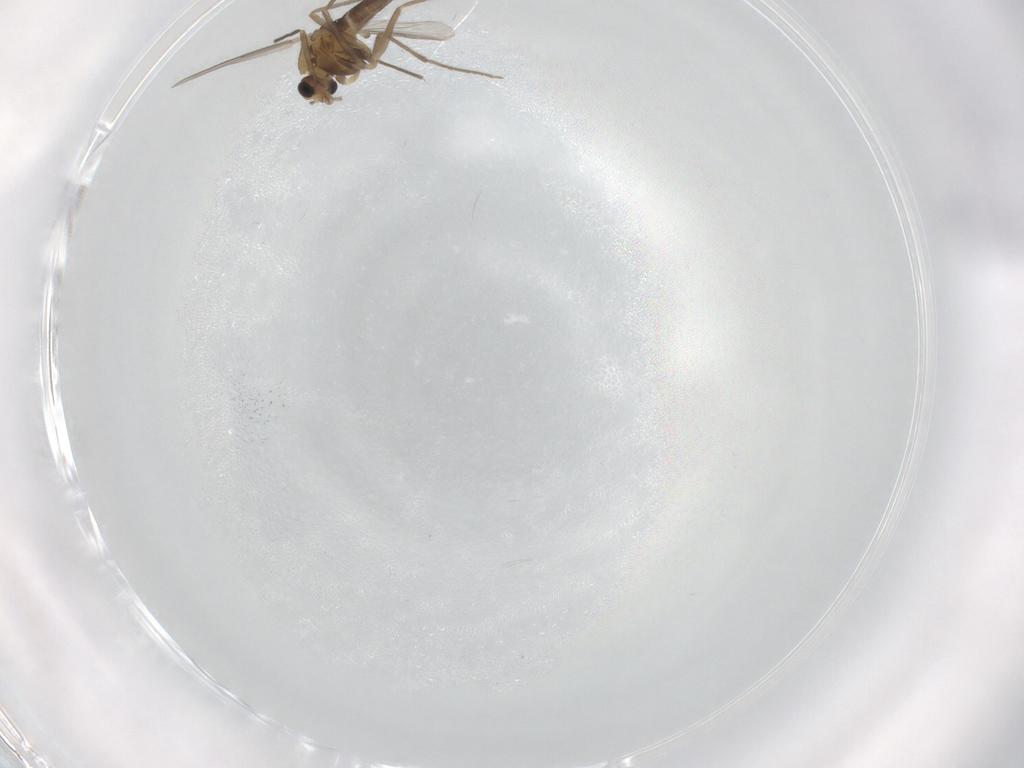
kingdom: Animalia
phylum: Arthropoda
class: Insecta
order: Diptera
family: Chironomidae
